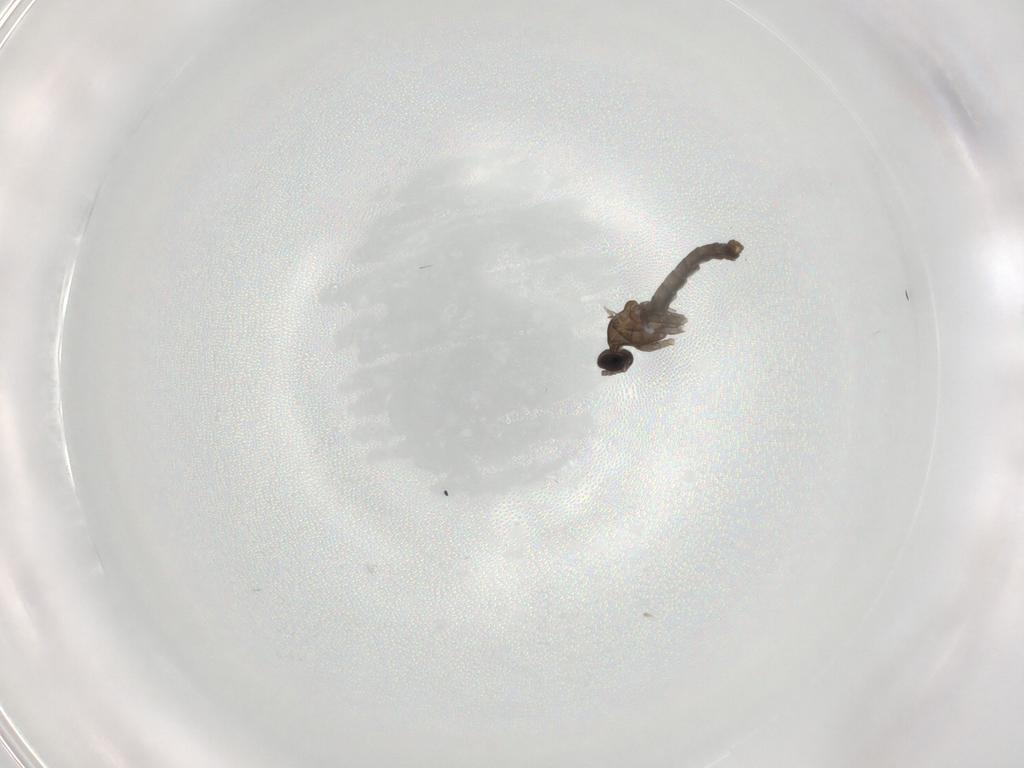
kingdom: Animalia
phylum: Arthropoda
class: Insecta
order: Diptera
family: Cecidomyiidae
